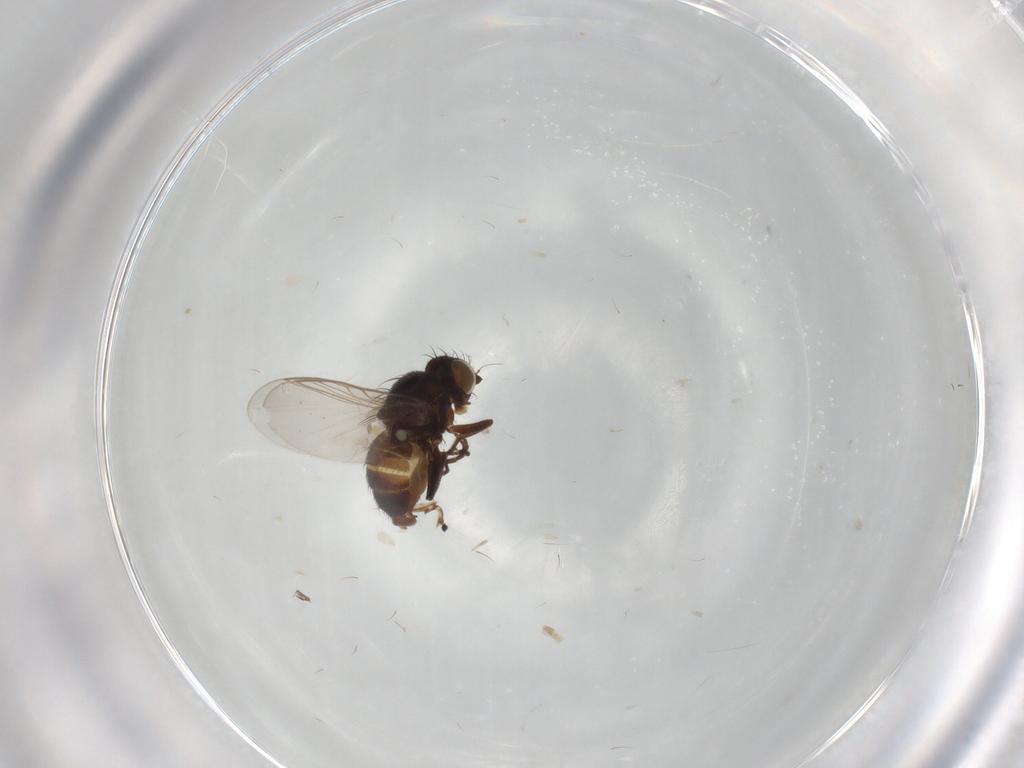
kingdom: Animalia
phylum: Arthropoda
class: Insecta
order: Diptera
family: Agromyzidae
